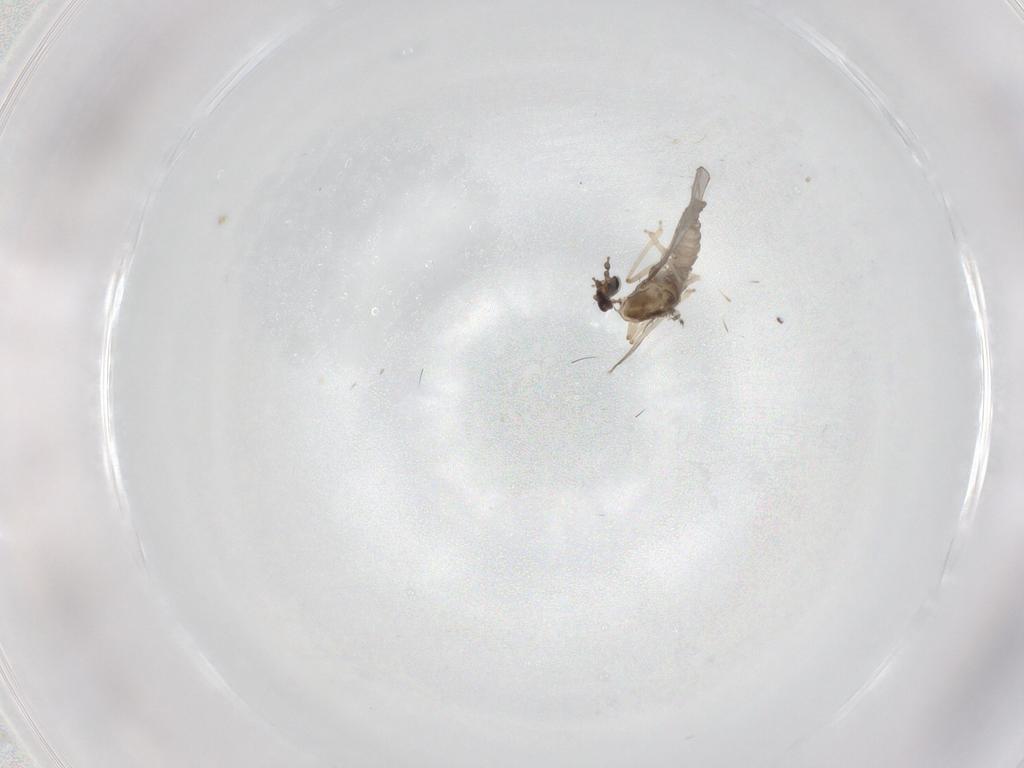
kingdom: Animalia
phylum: Arthropoda
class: Insecta
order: Diptera
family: Cecidomyiidae
